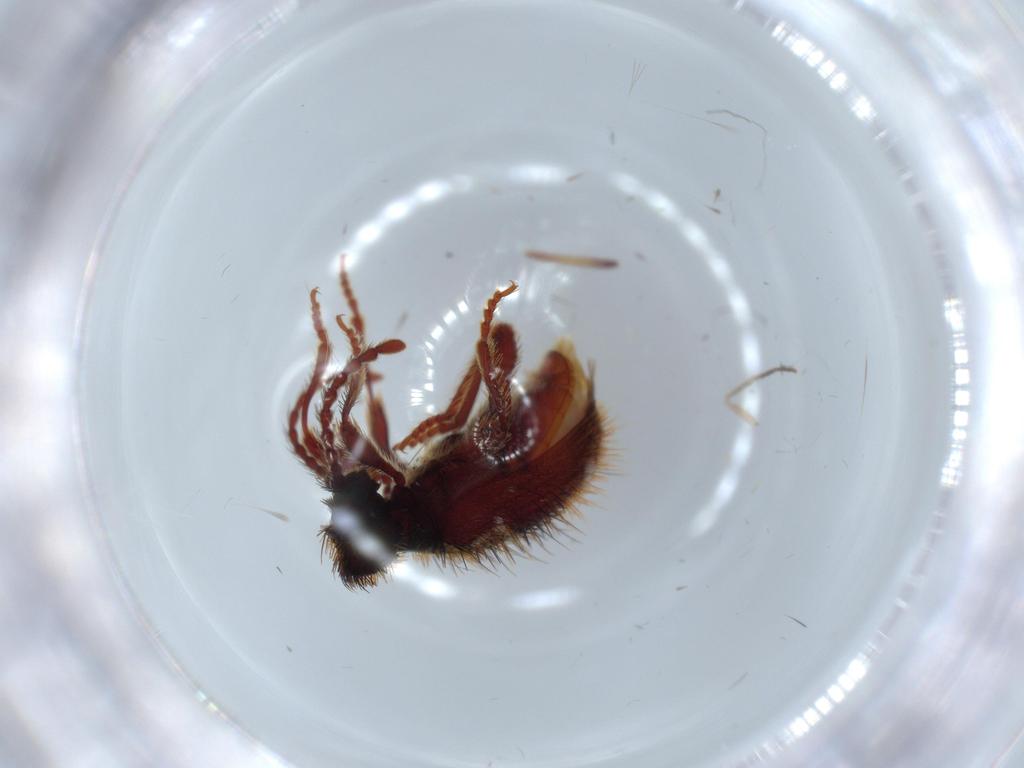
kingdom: Animalia
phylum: Arthropoda
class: Insecta
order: Coleoptera
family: Ptinidae
